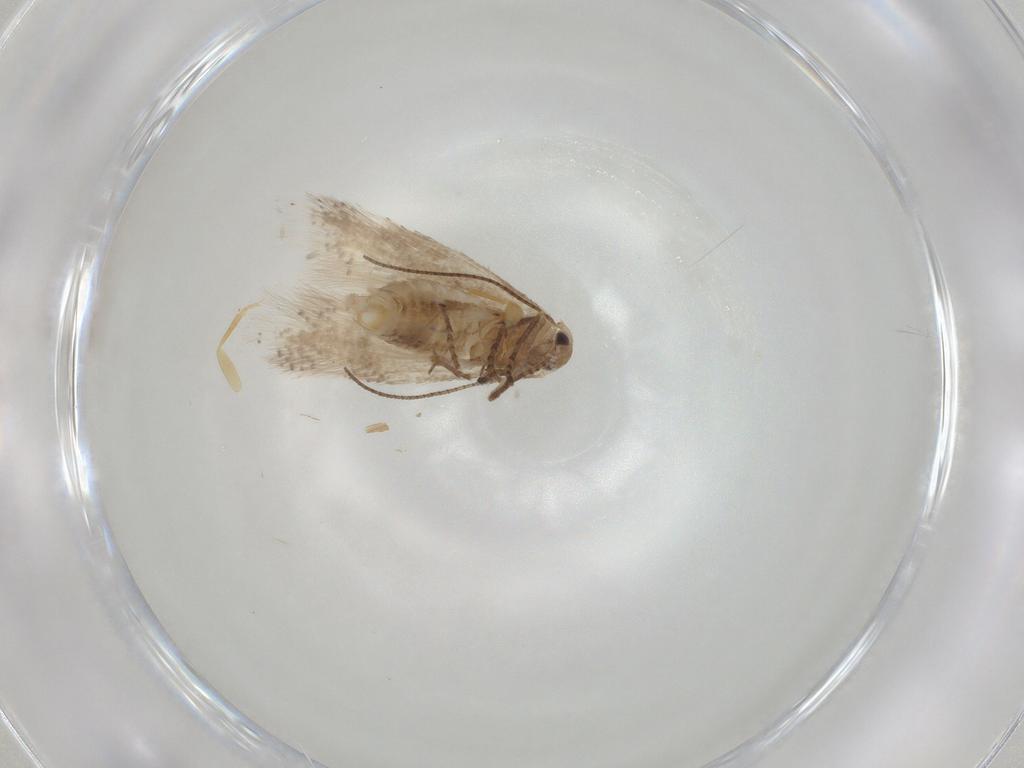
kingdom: Animalia
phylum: Arthropoda
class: Insecta
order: Lepidoptera
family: Bucculatricidae
